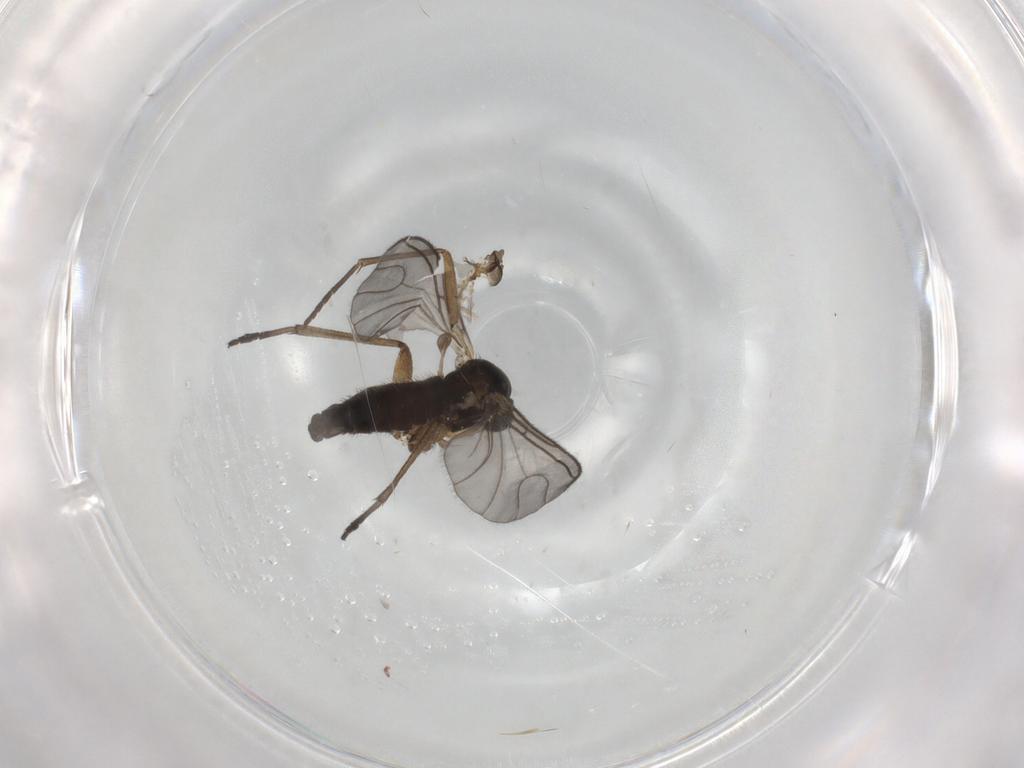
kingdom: Animalia
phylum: Arthropoda
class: Insecta
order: Diptera
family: Sciaridae
